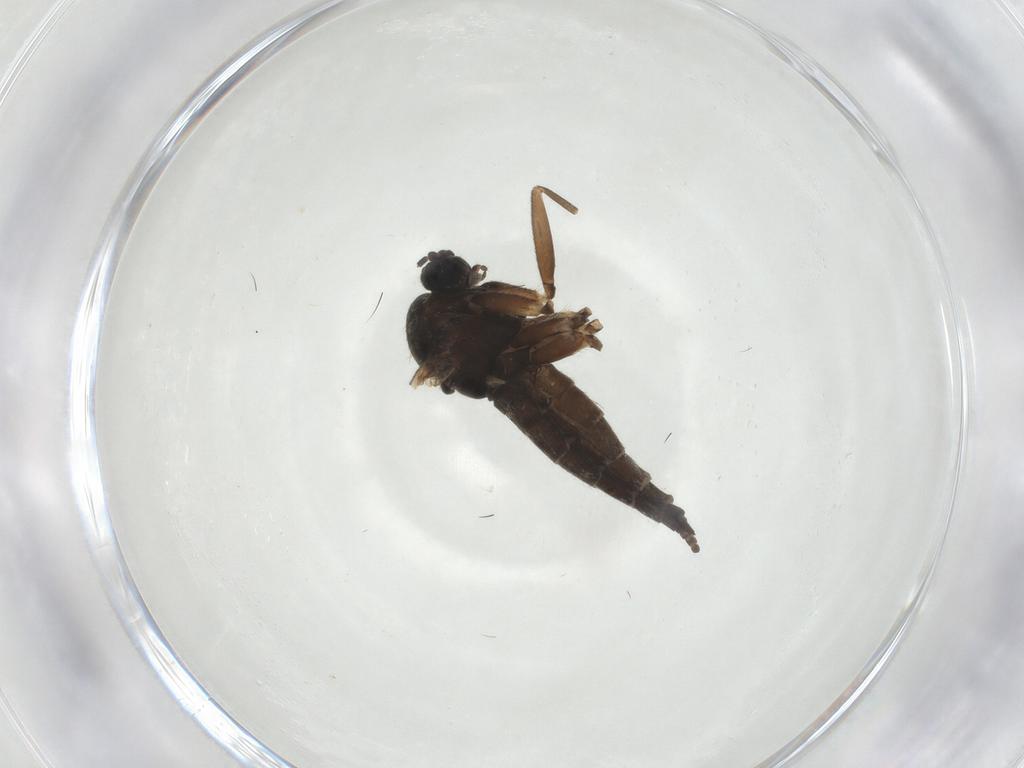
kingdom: Animalia
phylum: Arthropoda
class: Insecta
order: Diptera
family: Sciaridae
